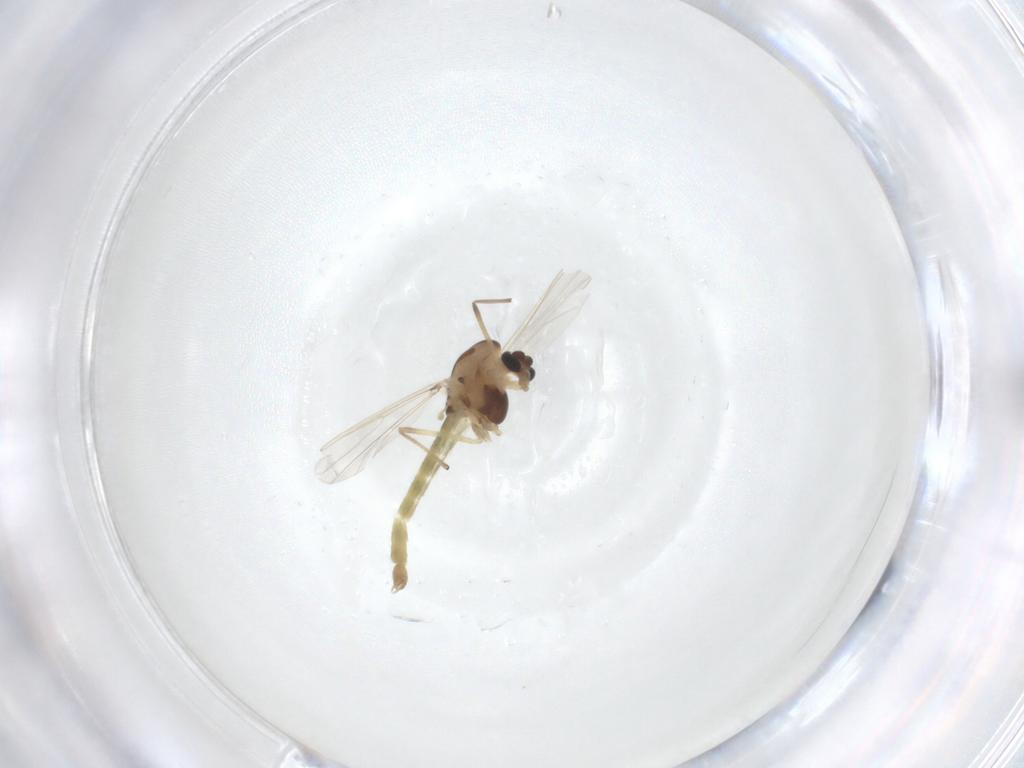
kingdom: Animalia
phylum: Arthropoda
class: Insecta
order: Diptera
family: Chironomidae
